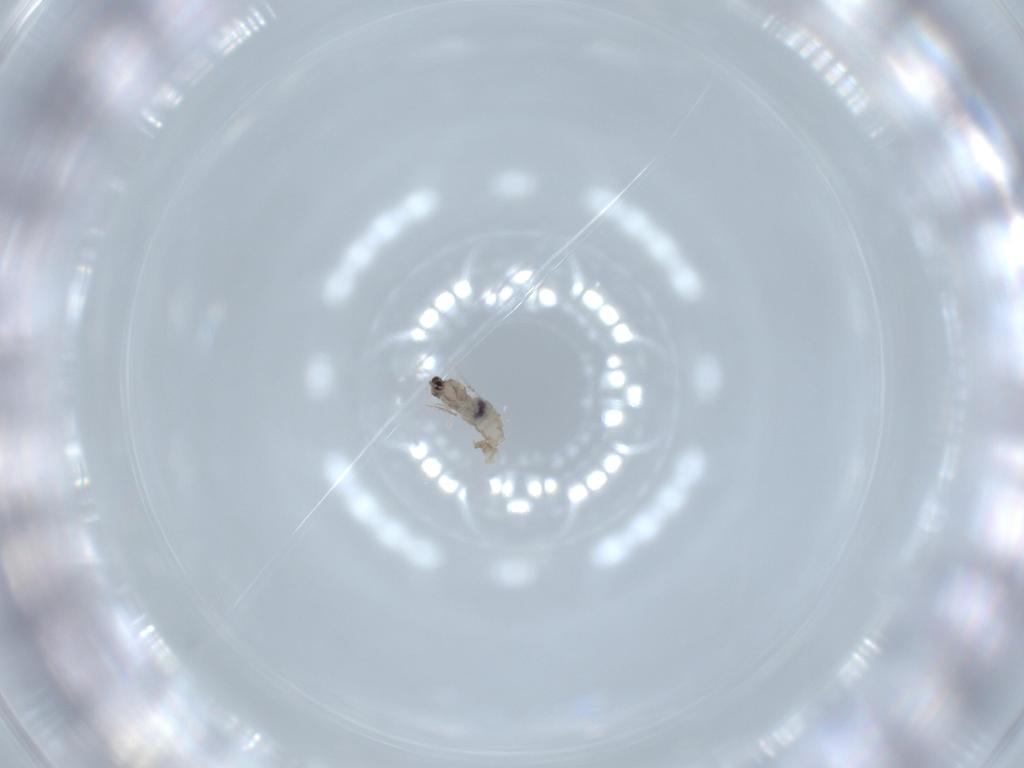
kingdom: Animalia
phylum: Arthropoda
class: Insecta
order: Diptera
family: Cecidomyiidae
